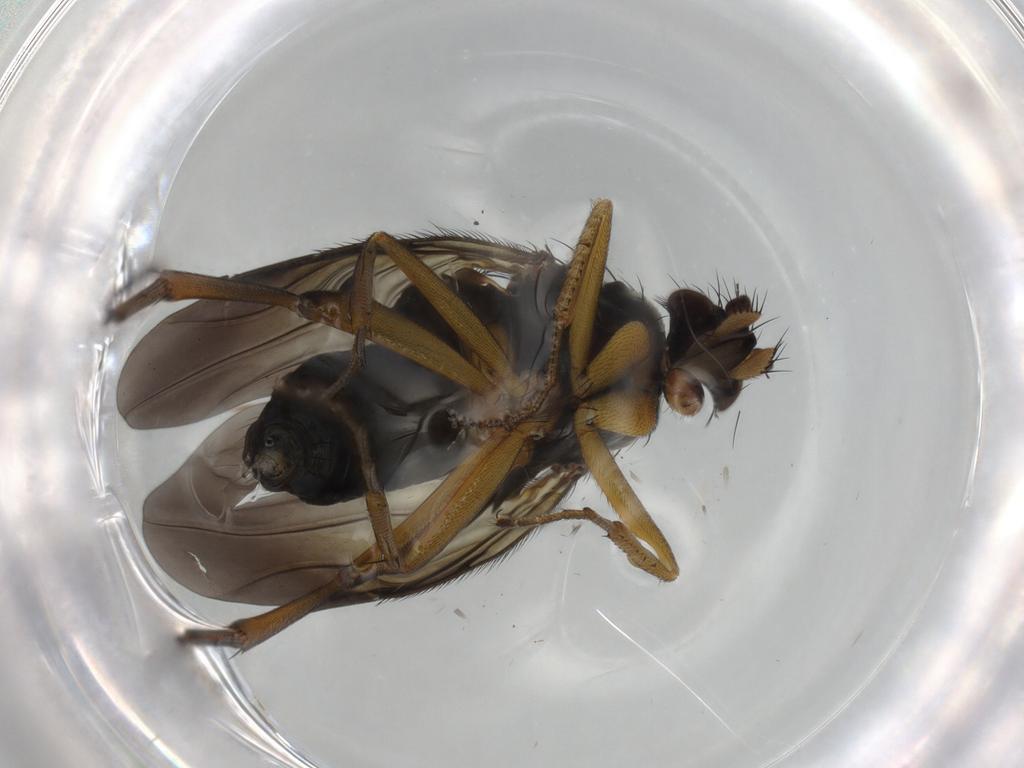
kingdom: Animalia
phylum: Arthropoda
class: Insecta
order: Diptera
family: Phoridae
